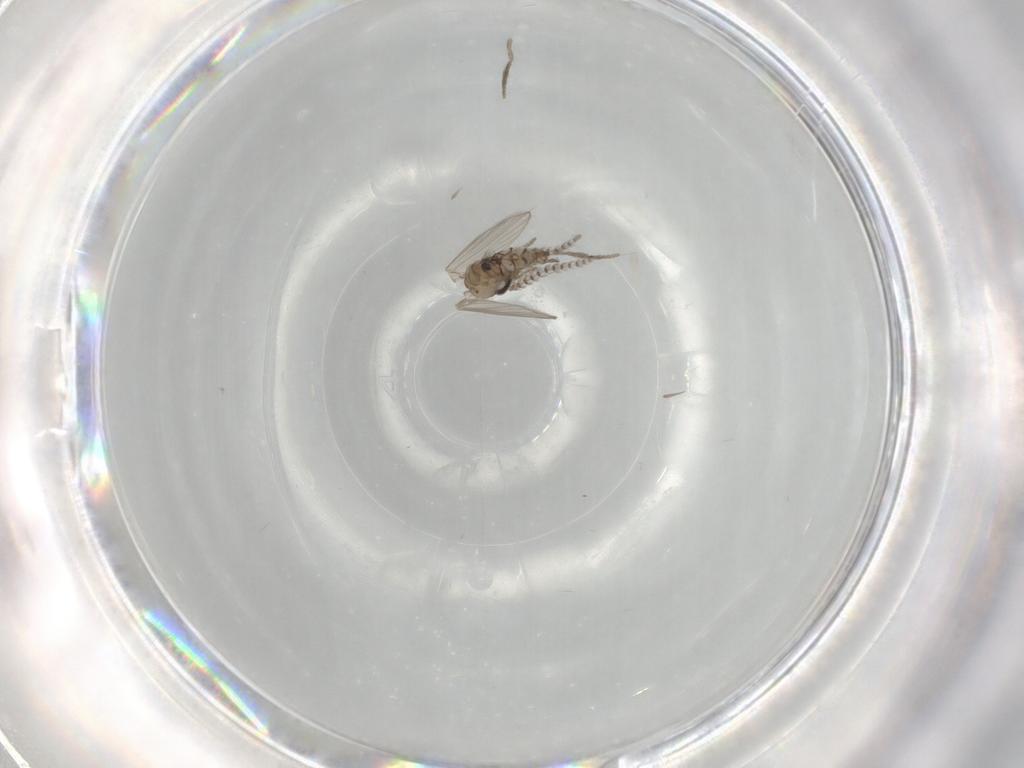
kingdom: Animalia
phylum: Arthropoda
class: Insecta
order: Diptera
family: Psychodidae
